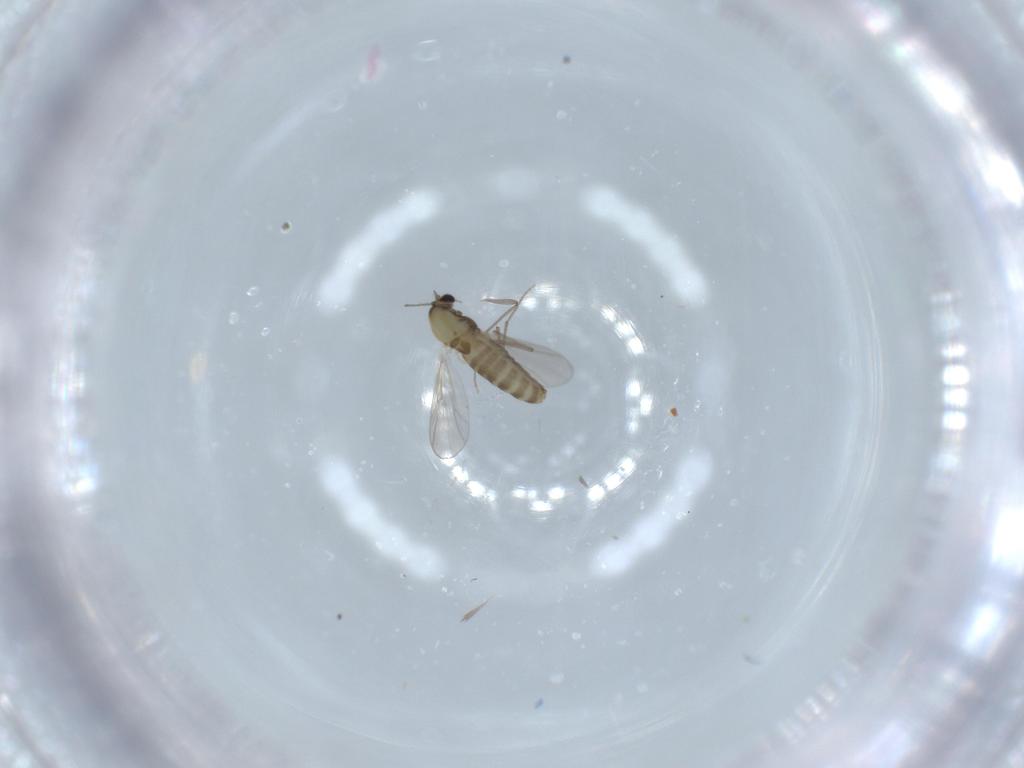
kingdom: Animalia
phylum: Arthropoda
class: Insecta
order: Diptera
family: Chironomidae
